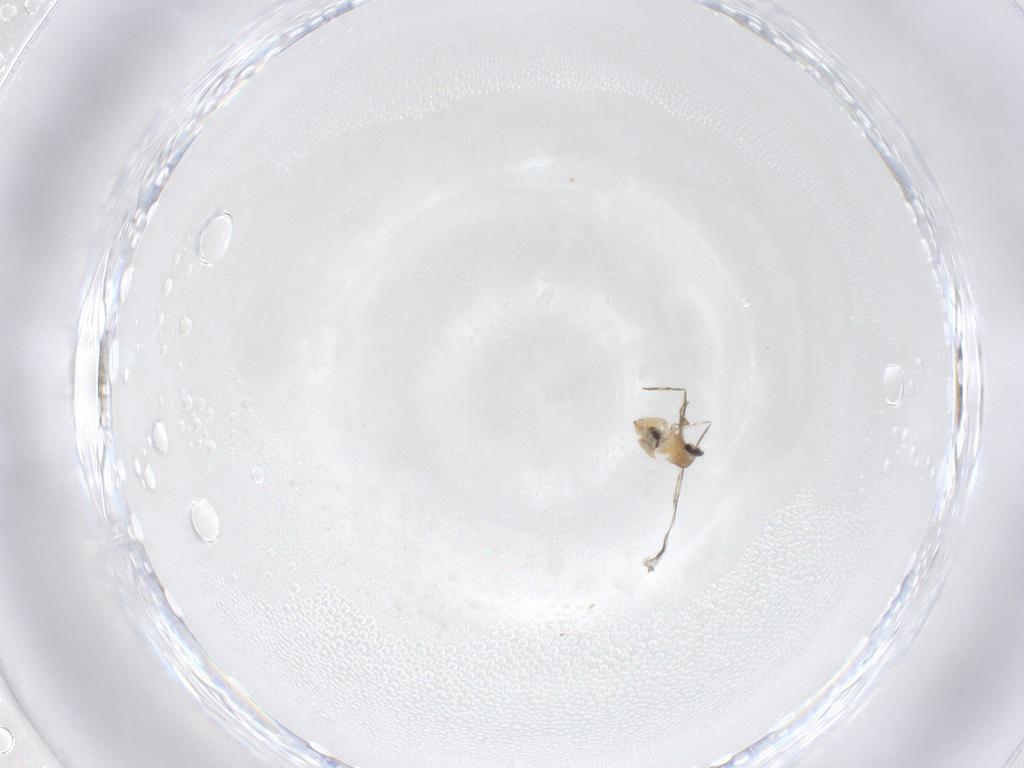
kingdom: Animalia
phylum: Arthropoda
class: Insecta
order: Diptera
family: Cecidomyiidae
